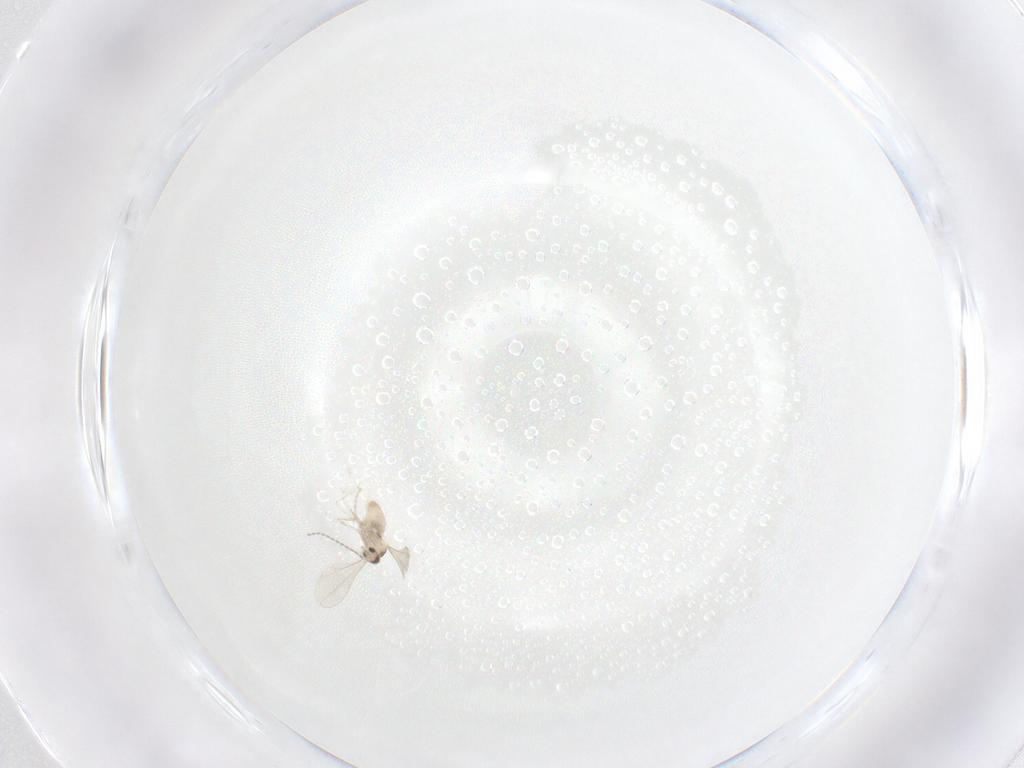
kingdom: Animalia
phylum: Arthropoda
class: Insecta
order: Diptera
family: Cecidomyiidae
